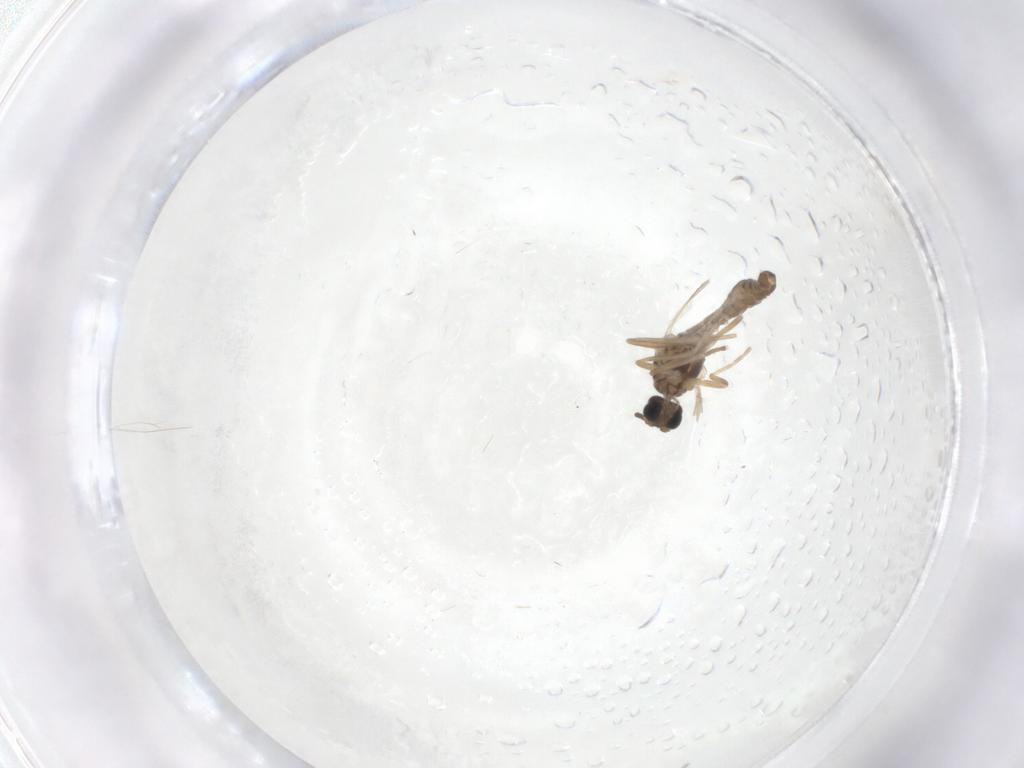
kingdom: Animalia
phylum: Arthropoda
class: Insecta
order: Diptera
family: Cecidomyiidae
